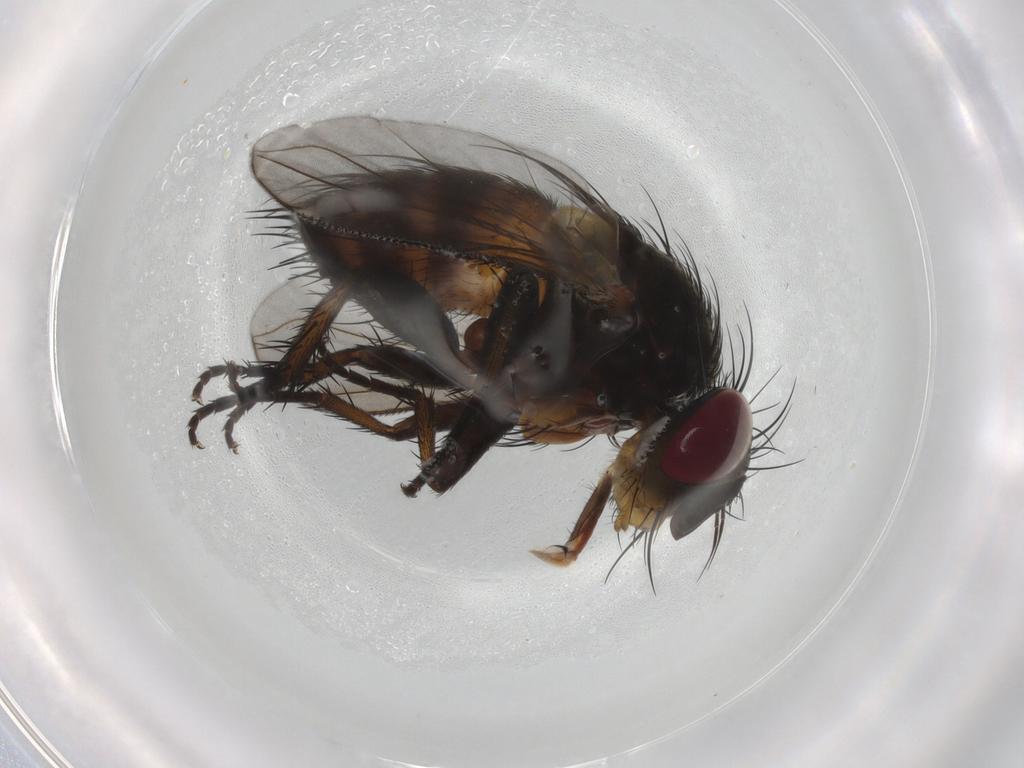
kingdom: Animalia
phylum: Arthropoda
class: Insecta
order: Diptera
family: Tachinidae
